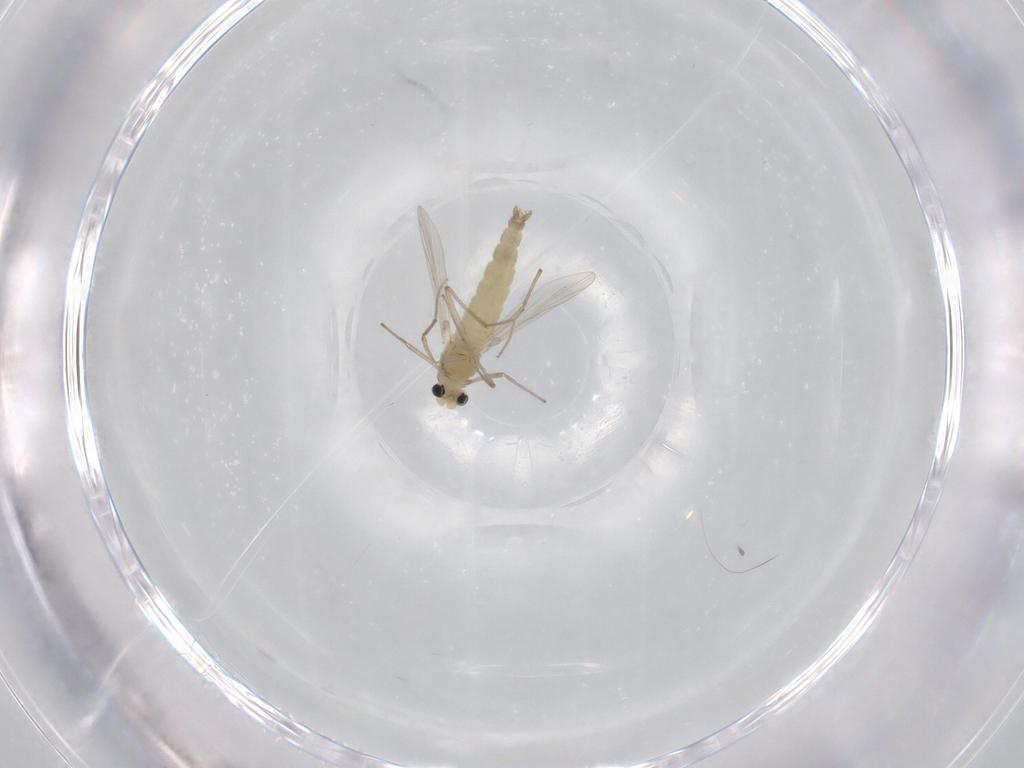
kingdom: Animalia
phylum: Arthropoda
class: Insecta
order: Diptera
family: Chironomidae
